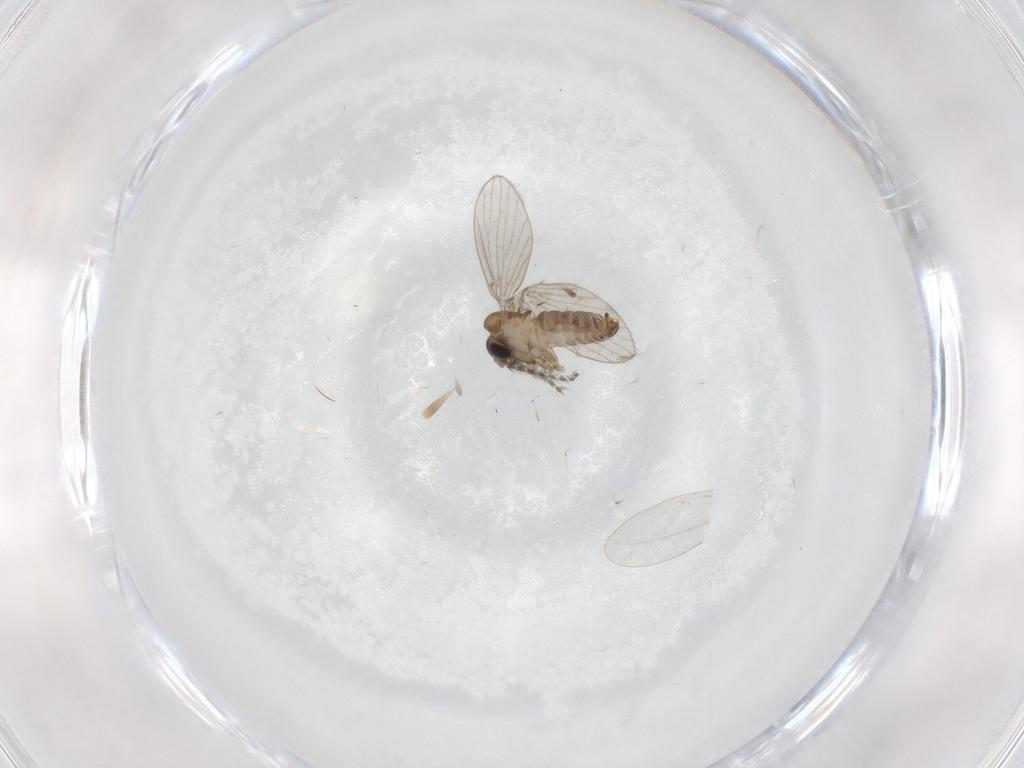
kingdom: Animalia
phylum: Arthropoda
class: Insecta
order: Diptera
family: Psychodidae
